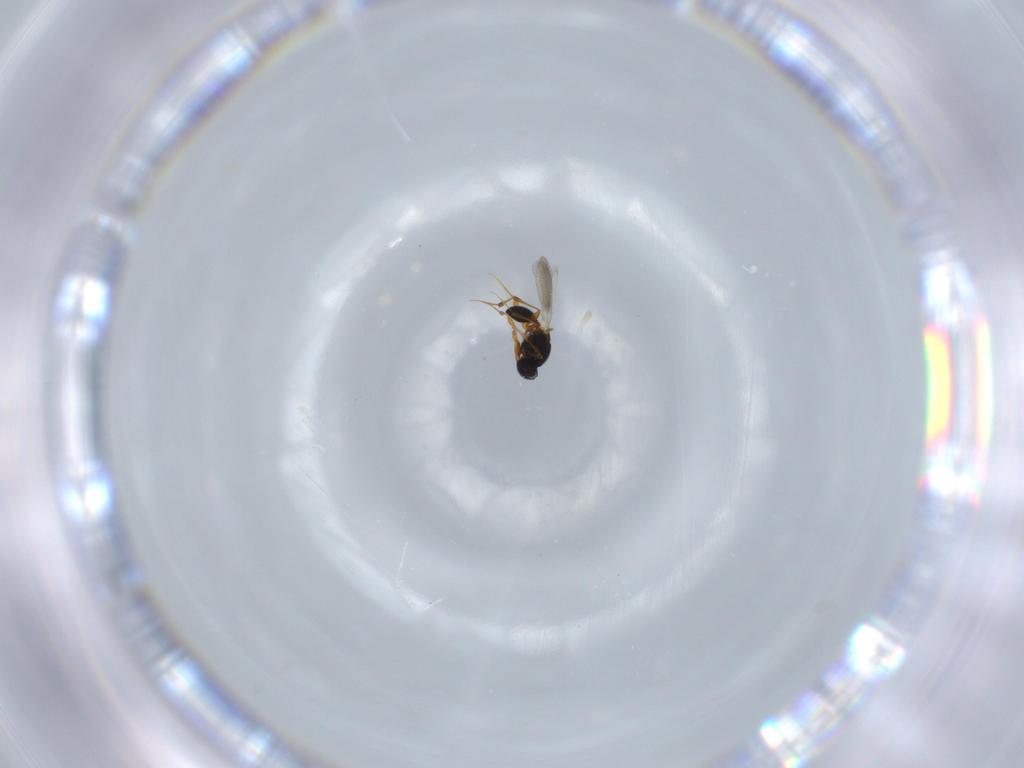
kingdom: Animalia
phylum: Arthropoda
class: Insecta
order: Hymenoptera
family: Platygastridae
